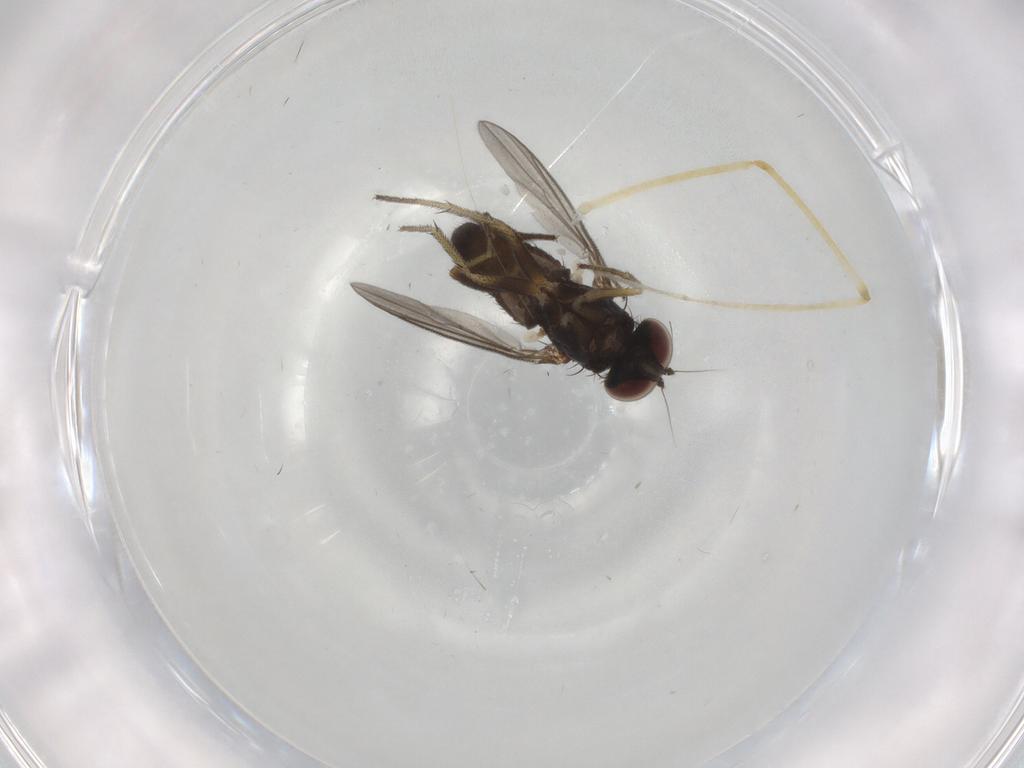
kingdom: Animalia
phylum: Arthropoda
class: Insecta
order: Diptera
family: Dolichopodidae
